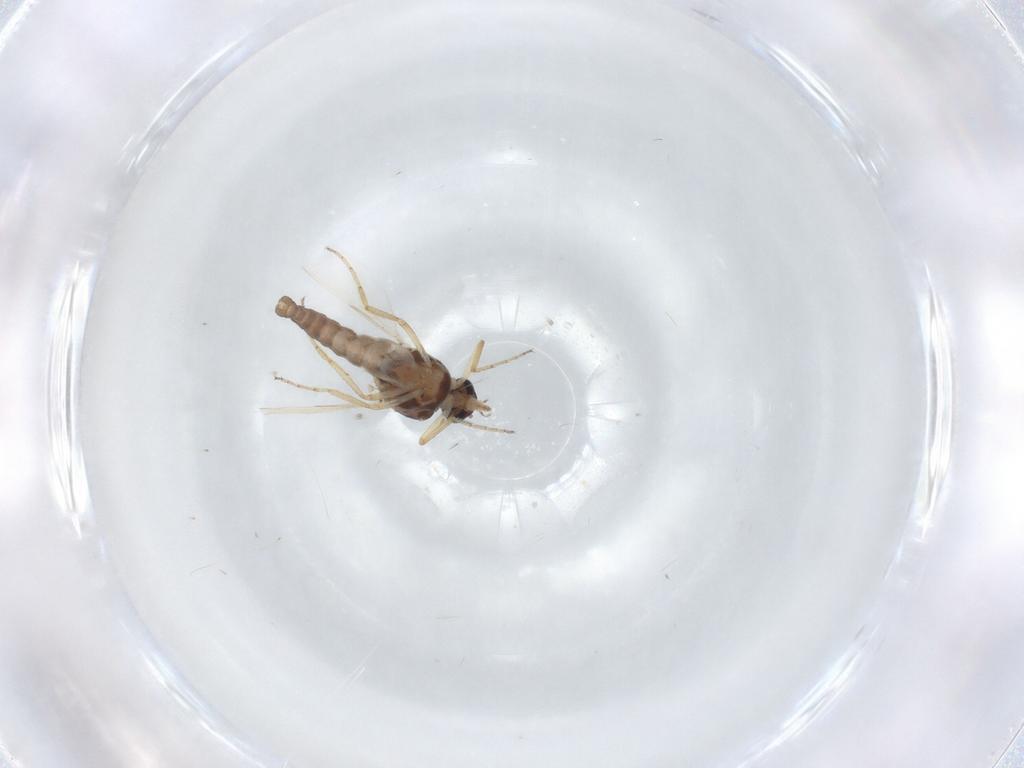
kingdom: Animalia
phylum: Arthropoda
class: Insecta
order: Diptera
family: Ceratopogonidae
